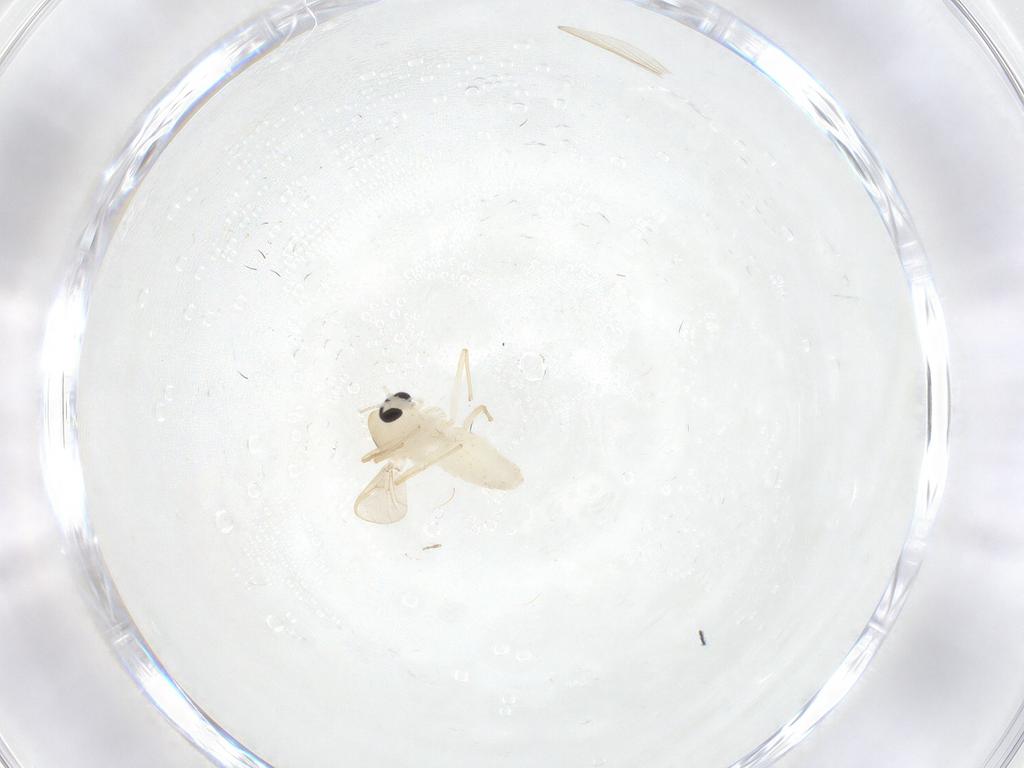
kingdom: Animalia
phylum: Arthropoda
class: Insecta
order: Diptera
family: Chironomidae
